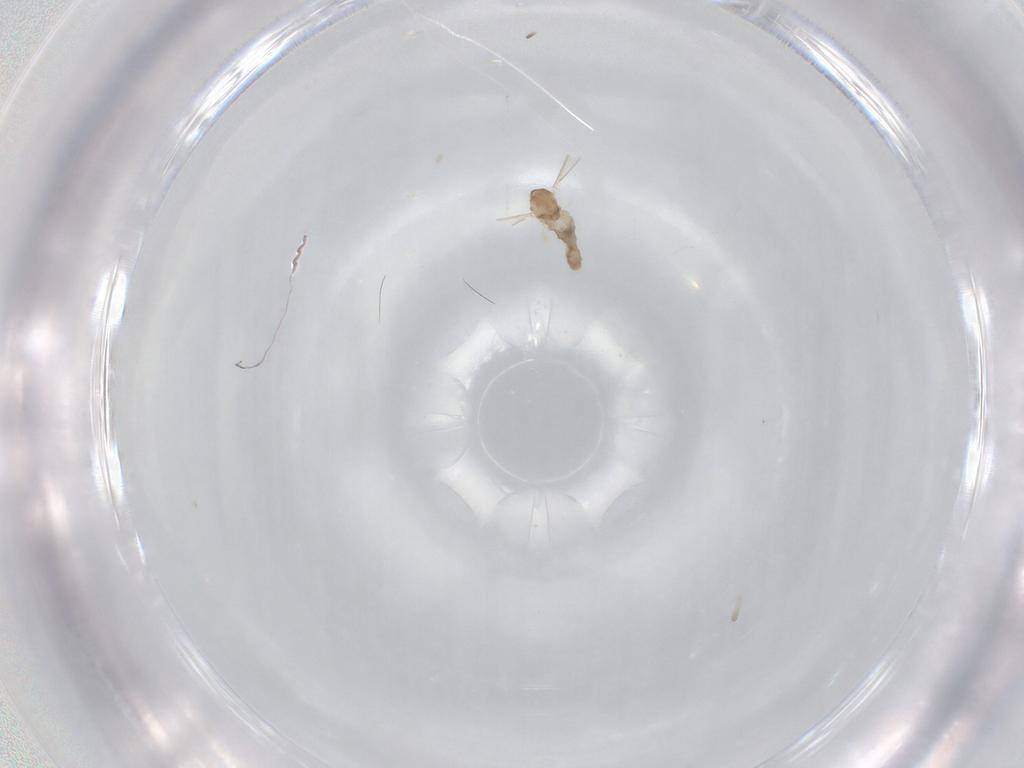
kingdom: Animalia
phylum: Arthropoda
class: Insecta
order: Diptera
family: Cecidomyiidae
